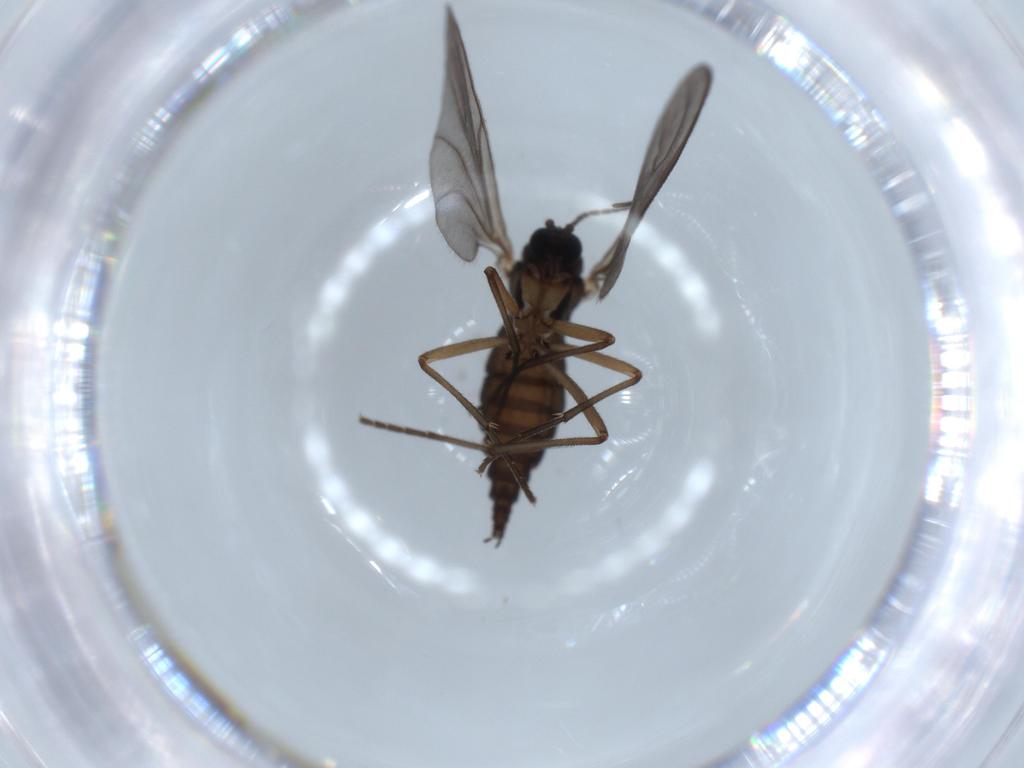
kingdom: Animalia
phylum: Arthropoda
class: Insecta
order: Diptera
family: Sciaridae
